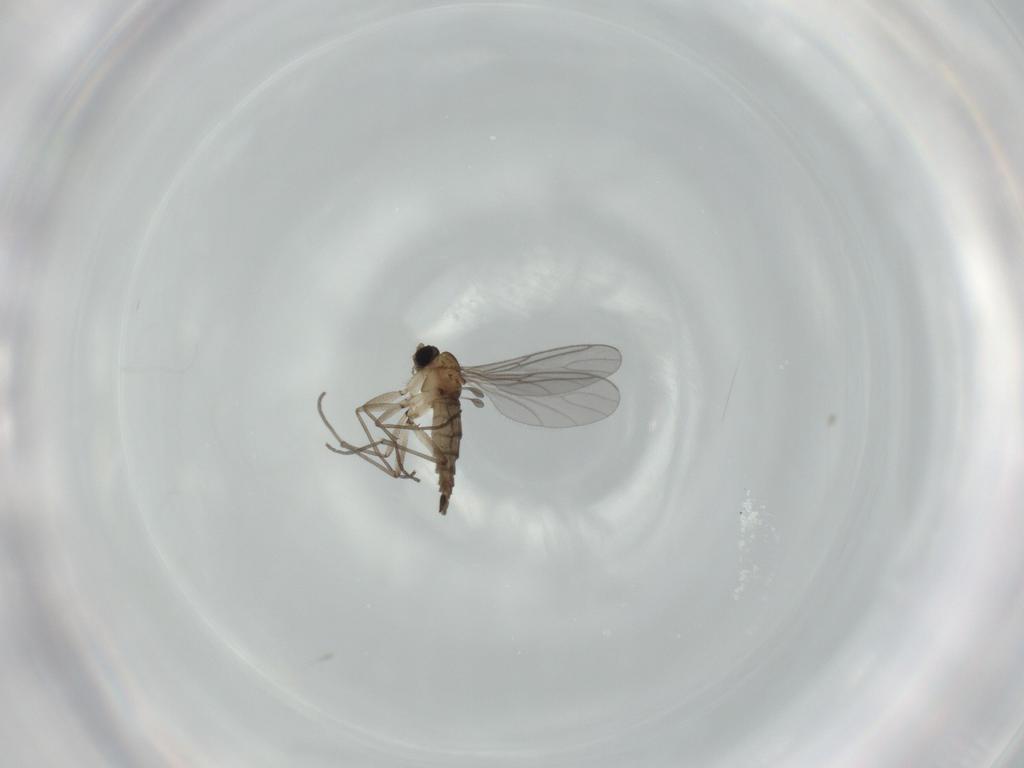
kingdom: Animalia
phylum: Arthropoda
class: Insecta
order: Diptera
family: Sciaridae
